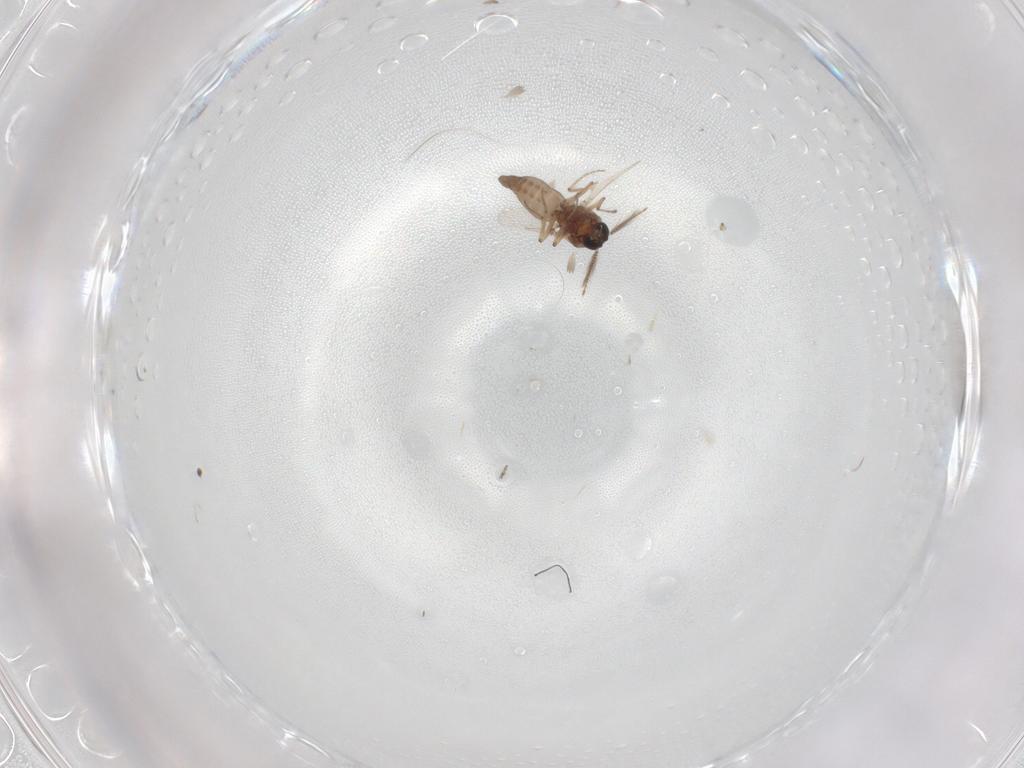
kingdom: Animalia
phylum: Arthropoda
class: Insecta
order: Diptera
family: Ceratopogonidae
